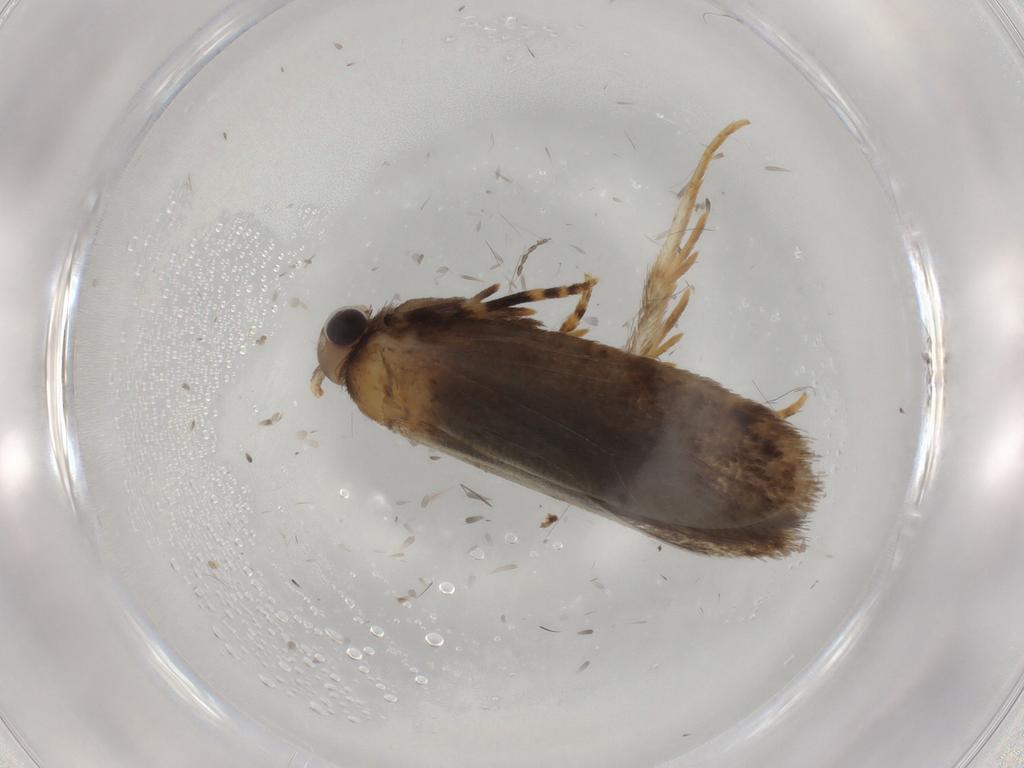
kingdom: Animalia
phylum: Arthropoda
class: Insecta
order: Lepidoptera
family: Tineidae
